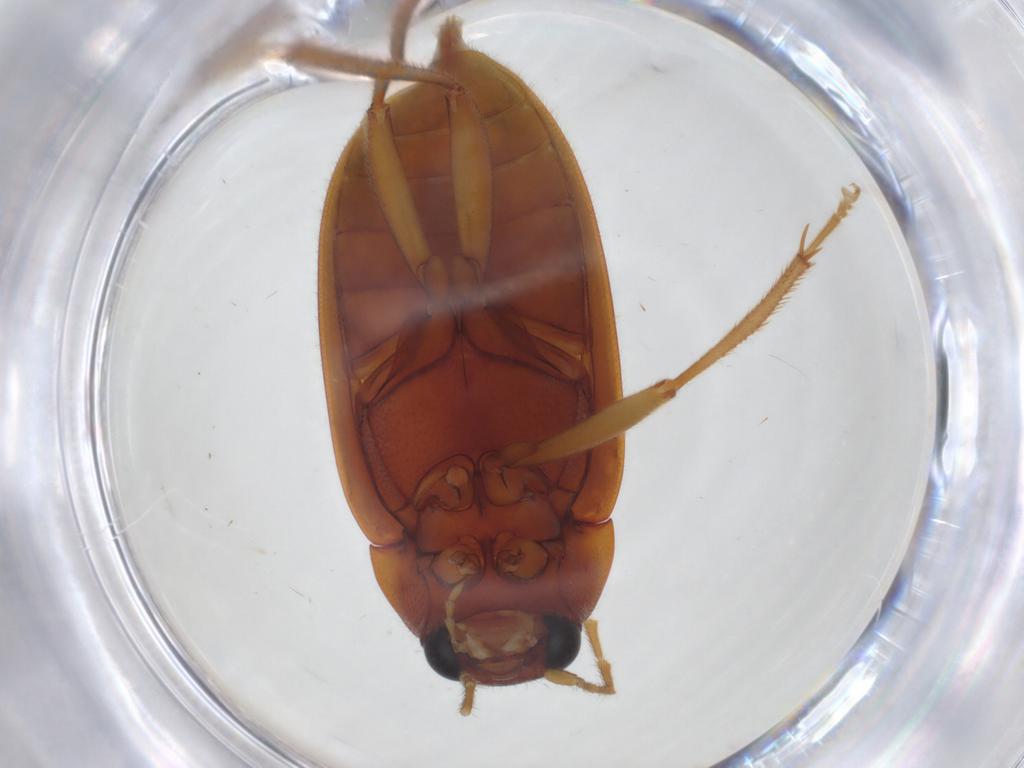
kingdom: Animalia
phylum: Arthropoda
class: Insecta
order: Coleoptera
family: Ptilodactylidae
